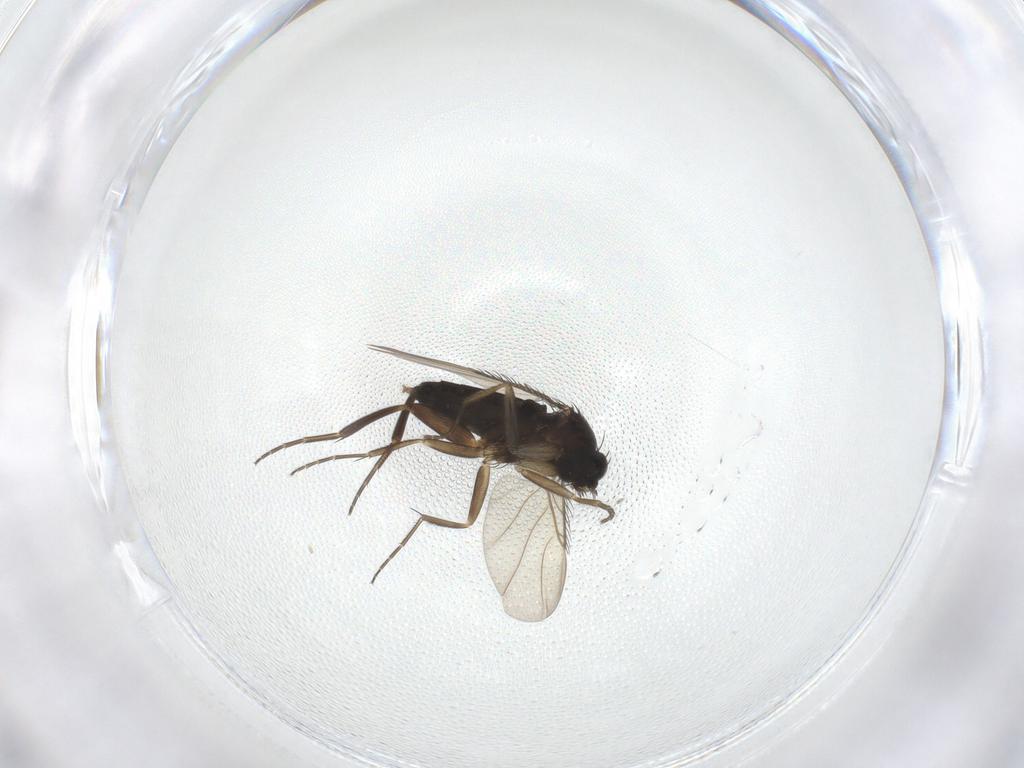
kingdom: Animalia
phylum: Arthropoda
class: Insecta
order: Diptera
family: Phoridae
